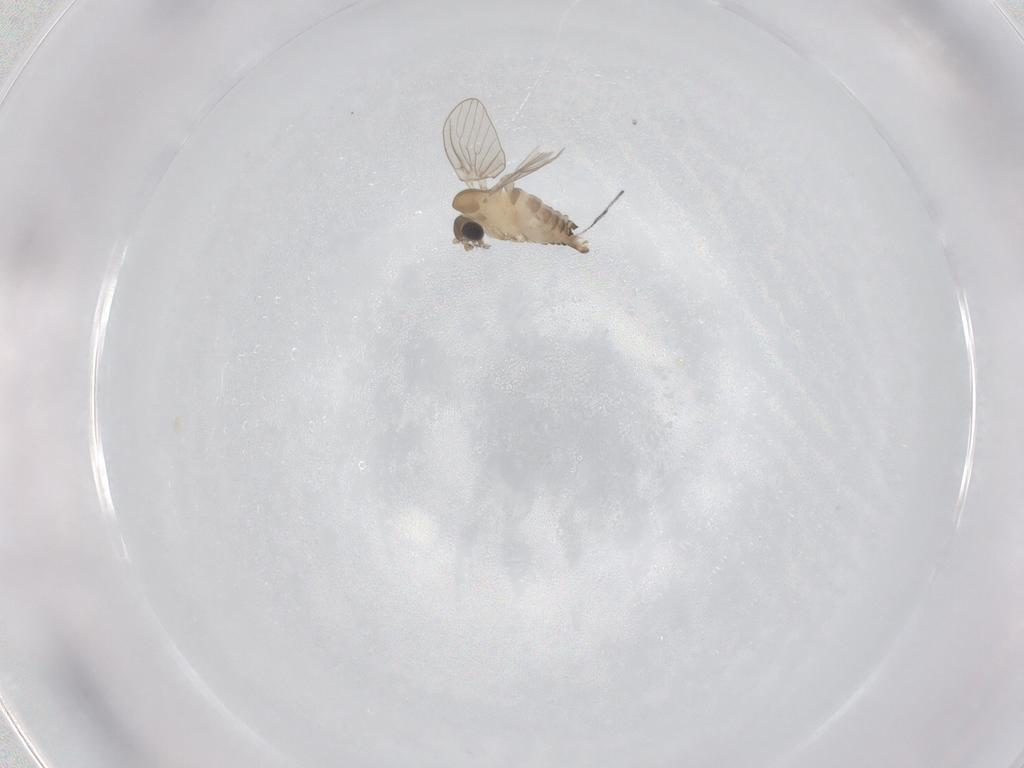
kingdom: Animalia
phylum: Arthropoda
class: Insecta
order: Diptera
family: Psychodidae
